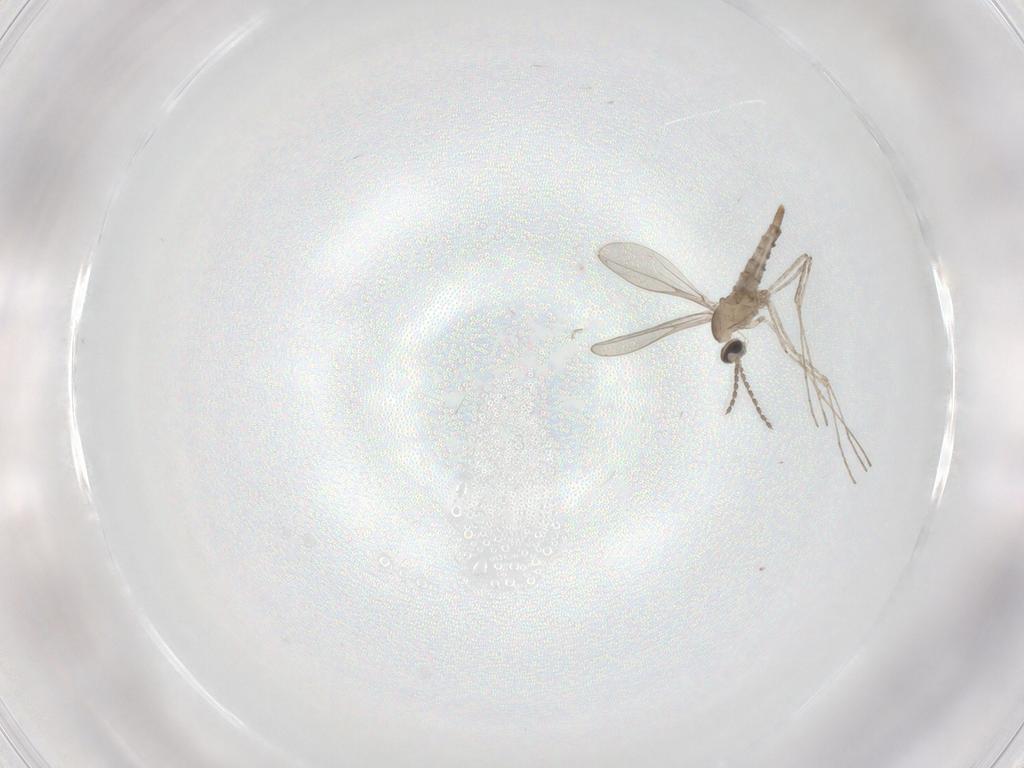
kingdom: Animalia
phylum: Arthropoda
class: Insecta
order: Diptera
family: Cecidomyiidae
